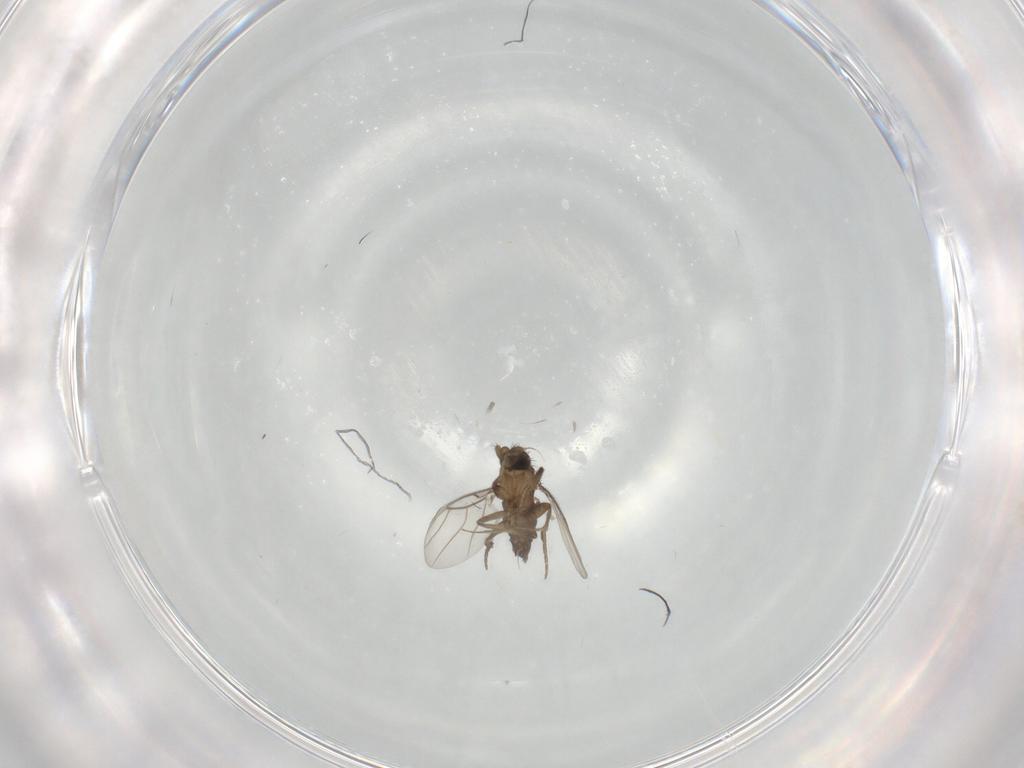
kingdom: Animalia
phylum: Arthropoda
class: Insecta
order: Diptera
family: Phoridae
